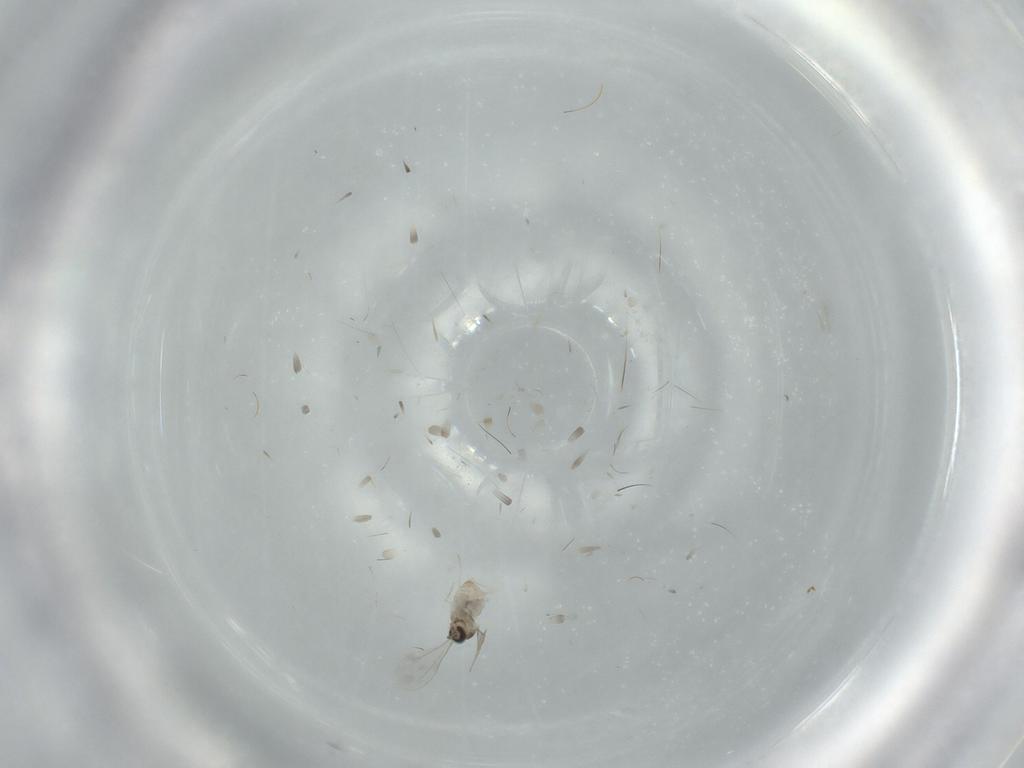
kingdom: Animalia
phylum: Arthropoda
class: Insecta
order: Diptera
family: Cecidomyiidae
